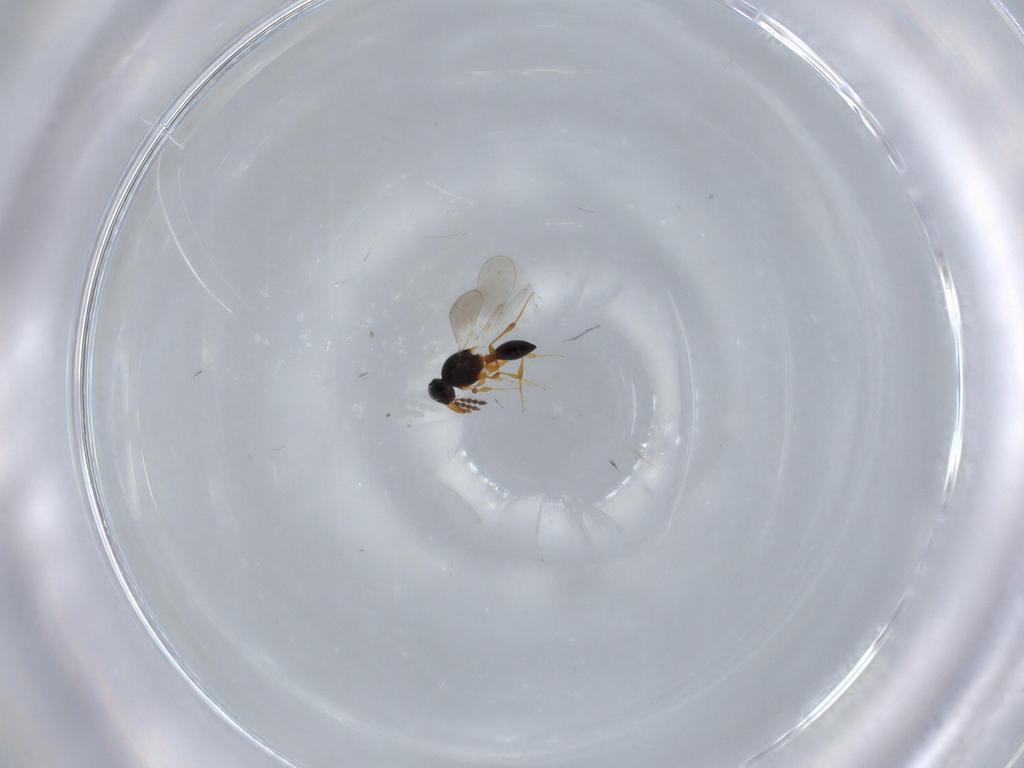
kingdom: Animalia
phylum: Arthropoda
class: Insecta
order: Hymenoptera
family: Platygastridae
